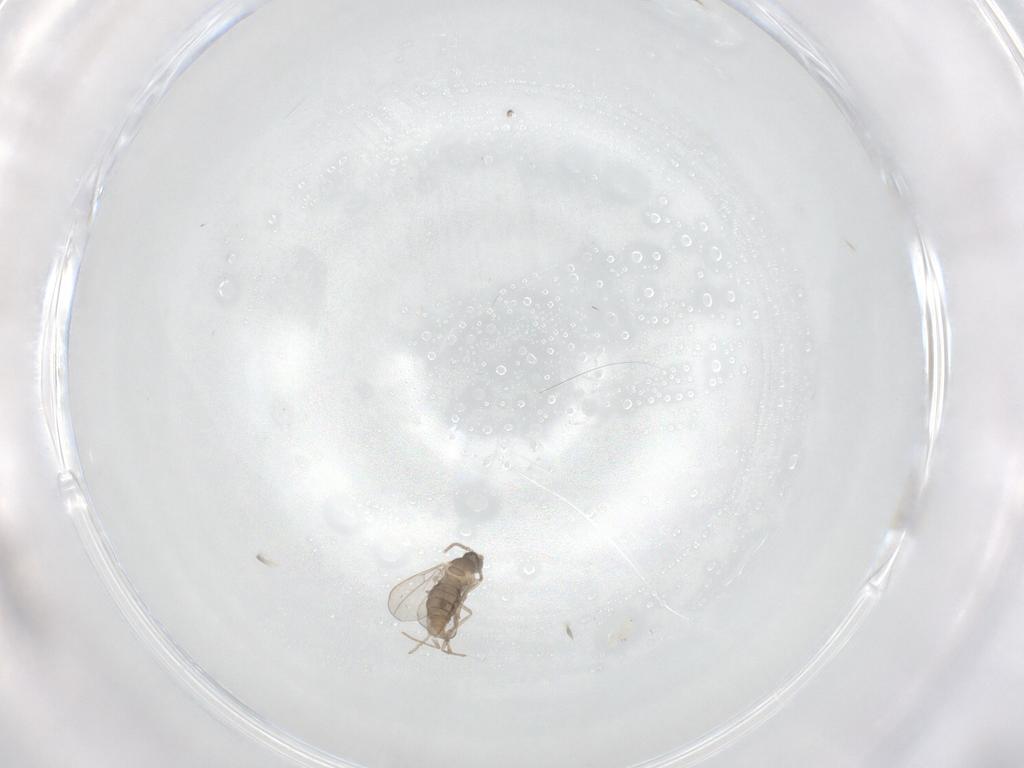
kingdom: Animalia
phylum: Arthropoda
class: Insecta
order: Diptera
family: Cecidomyiidae
